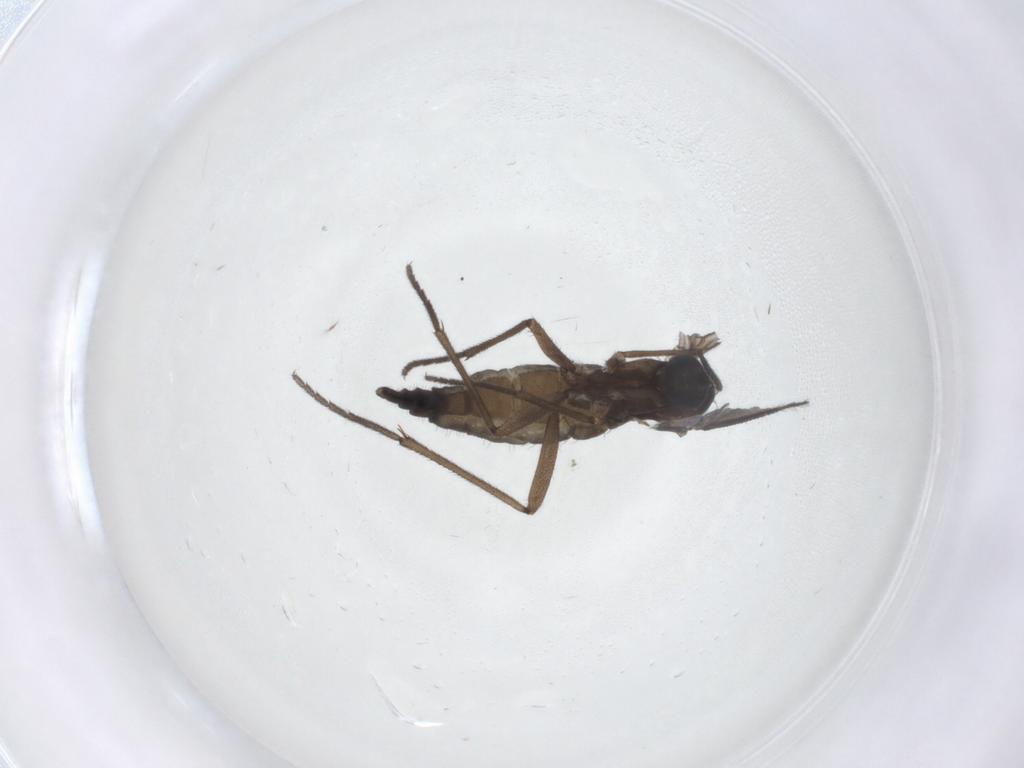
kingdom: Animalia
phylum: Arthropoda
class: Insecta
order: Diptera
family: Sciaridae
